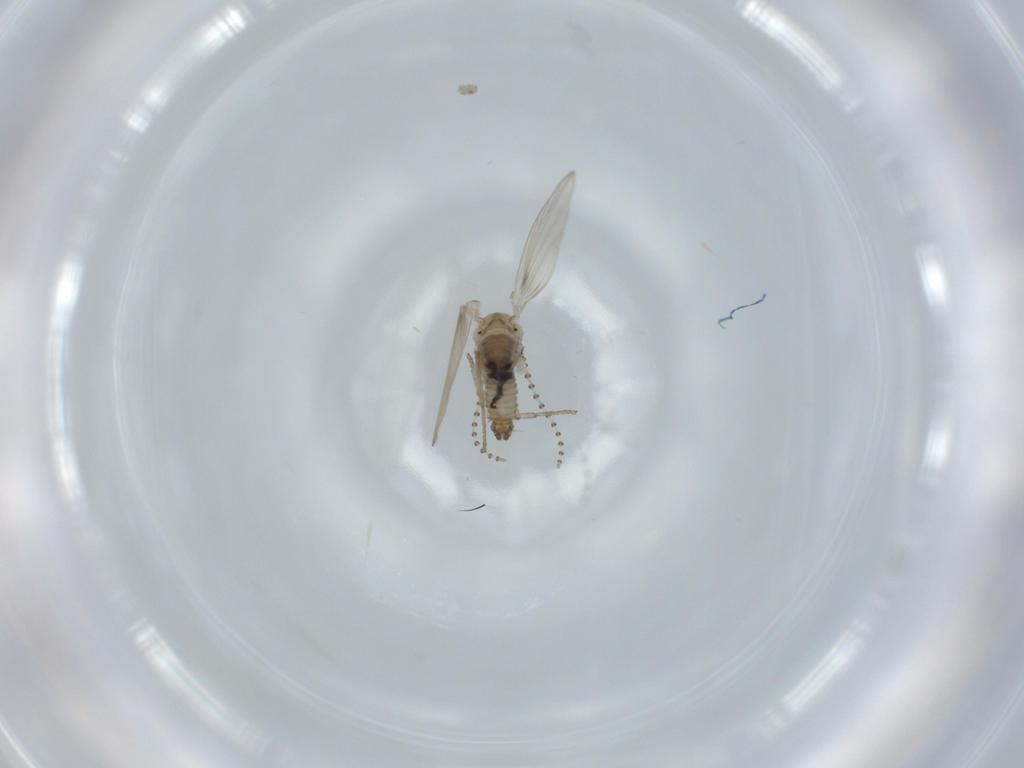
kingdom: Animalia
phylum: Arthropoda
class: Insecta
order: Diptera
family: Psychodidae
